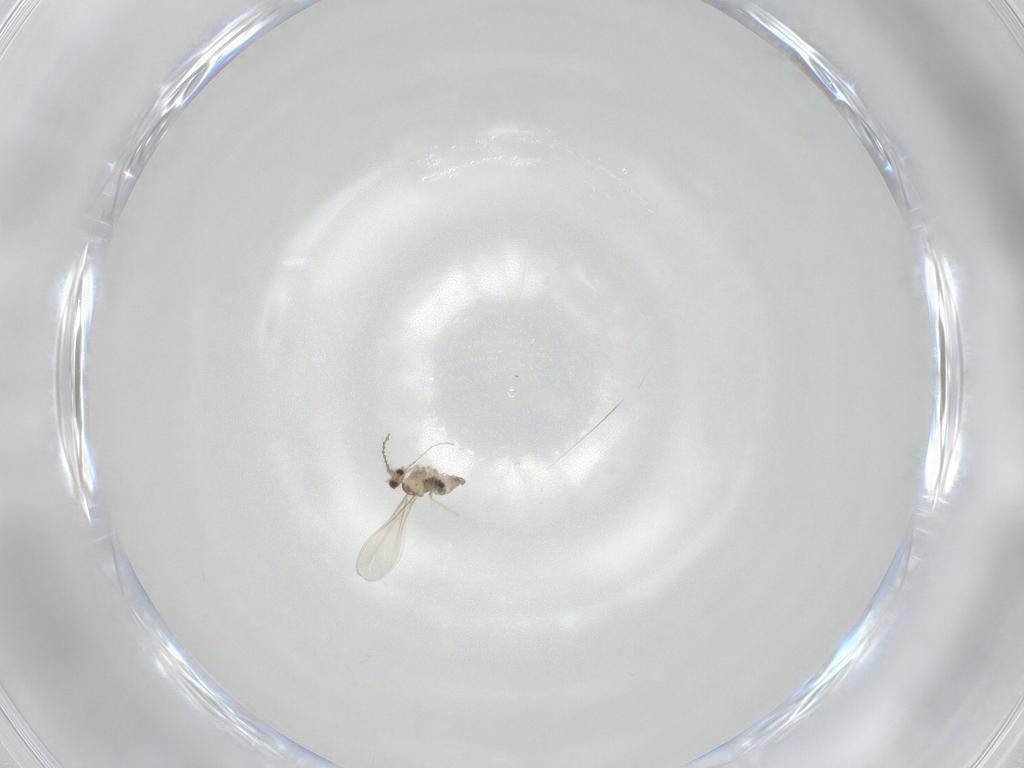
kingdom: Animalia
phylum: Arthropoda
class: Insecta
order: Diptera
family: Cecidomyiidae
